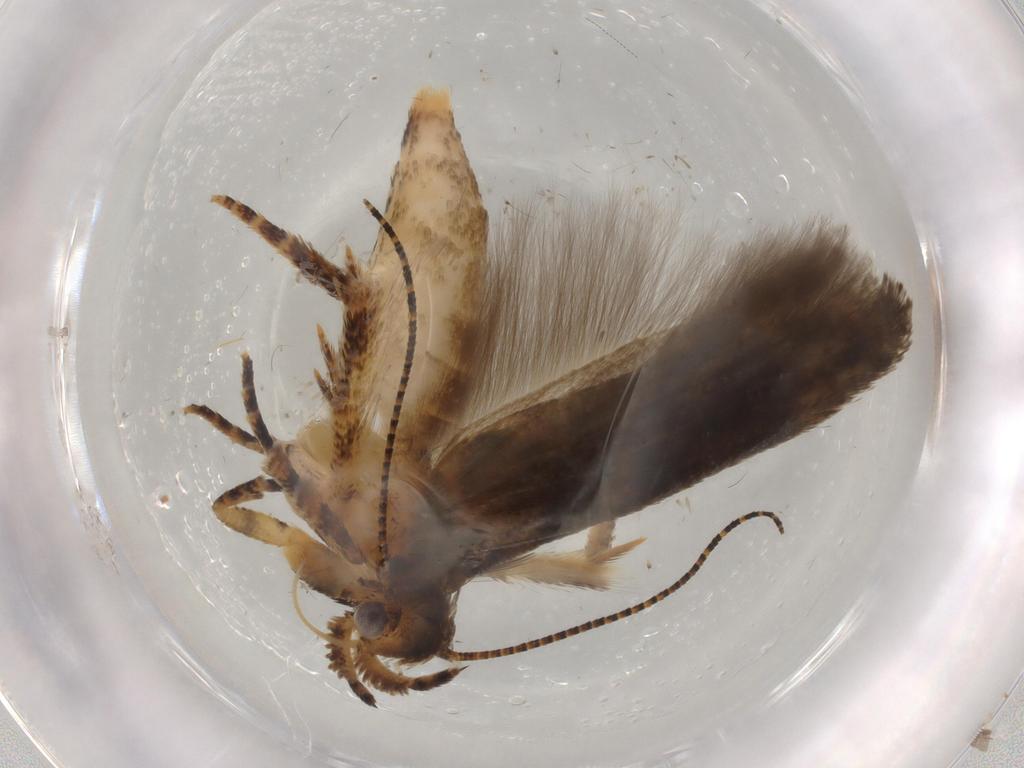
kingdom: Animalia
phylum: Arthropoda
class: Insecta
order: Lepidoptera
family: Gelechiidae
